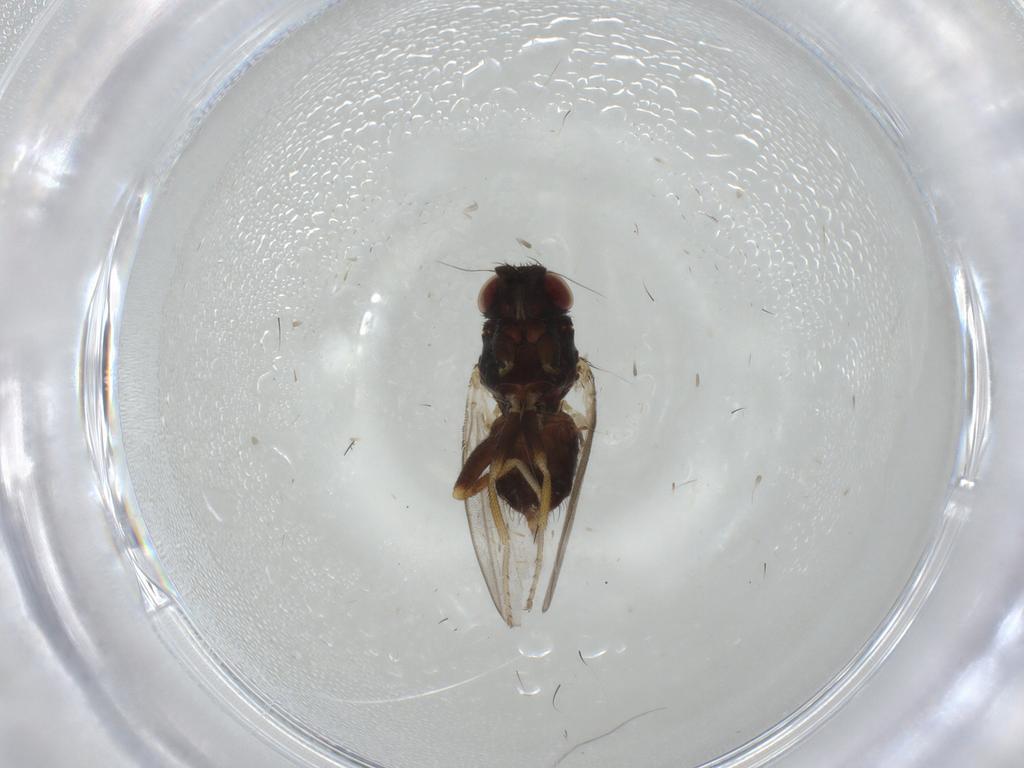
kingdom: Animalia
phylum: Arthropoda
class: Insecta
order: Diptera
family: Milichiidae
